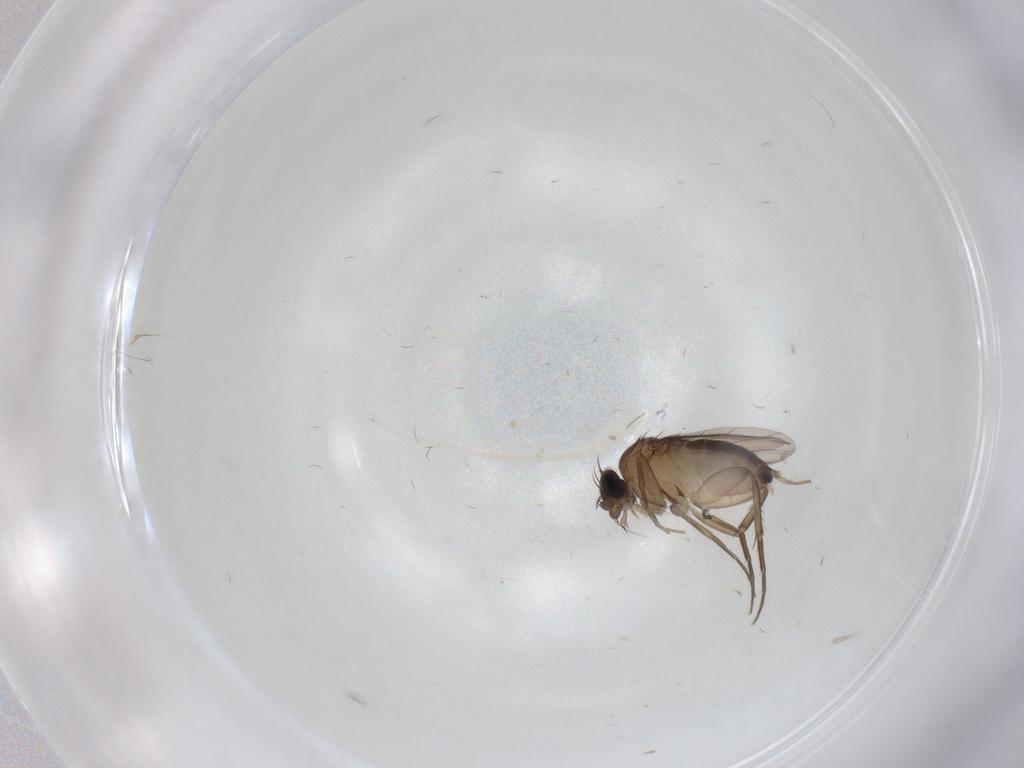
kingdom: Animalia
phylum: Arthropoda
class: Insecta
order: Diptera
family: Phoridae
